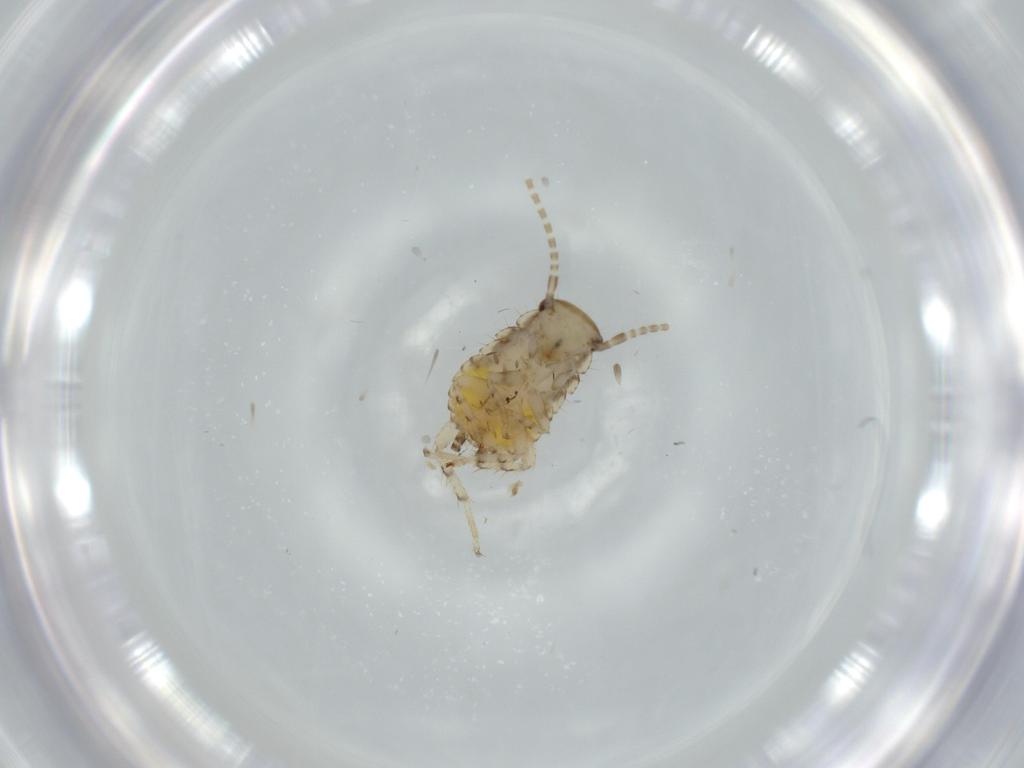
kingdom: Animalia
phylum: Arthropoda
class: Insecta
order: Blattodea
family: Ectobiidae
